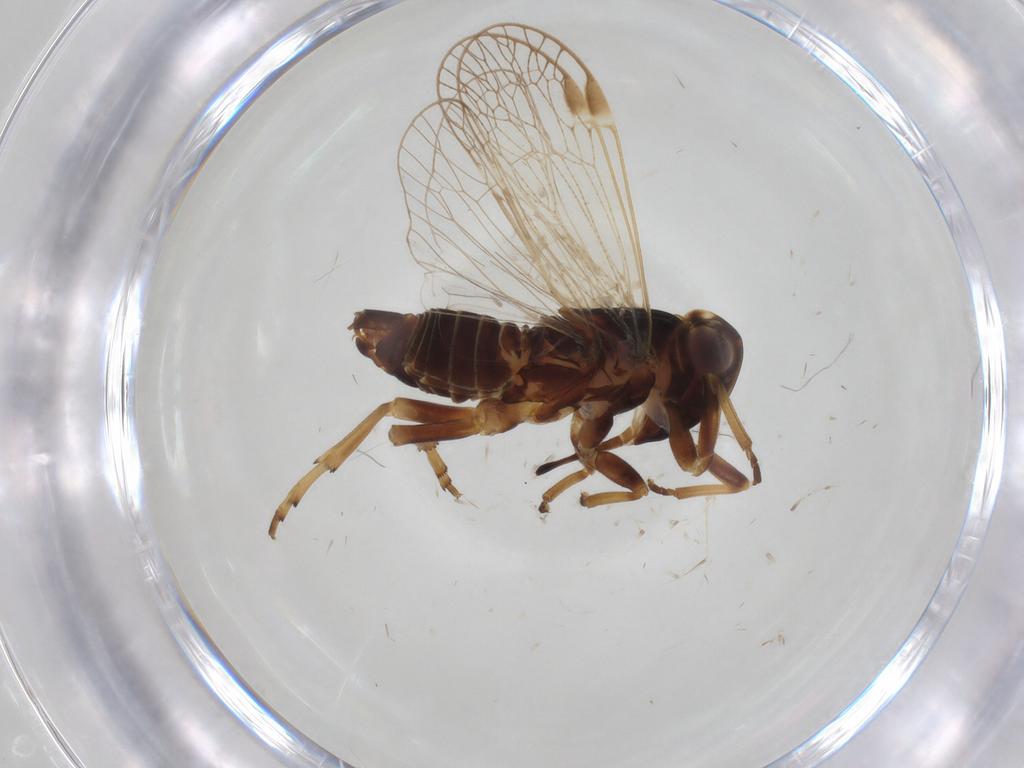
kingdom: Animalia
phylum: Arthropoda
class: Insecta
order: Hemiptera
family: Cixiidae
